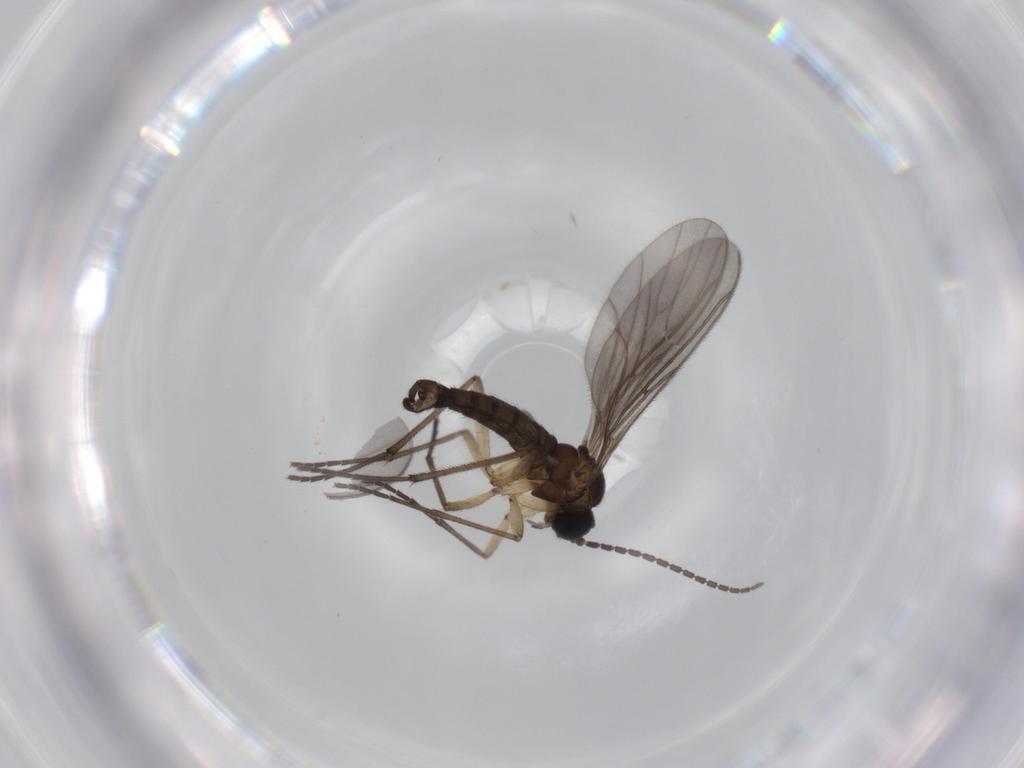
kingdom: Animalia
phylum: Arthropoda
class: Insecta
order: Diptera
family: Sciaridae
